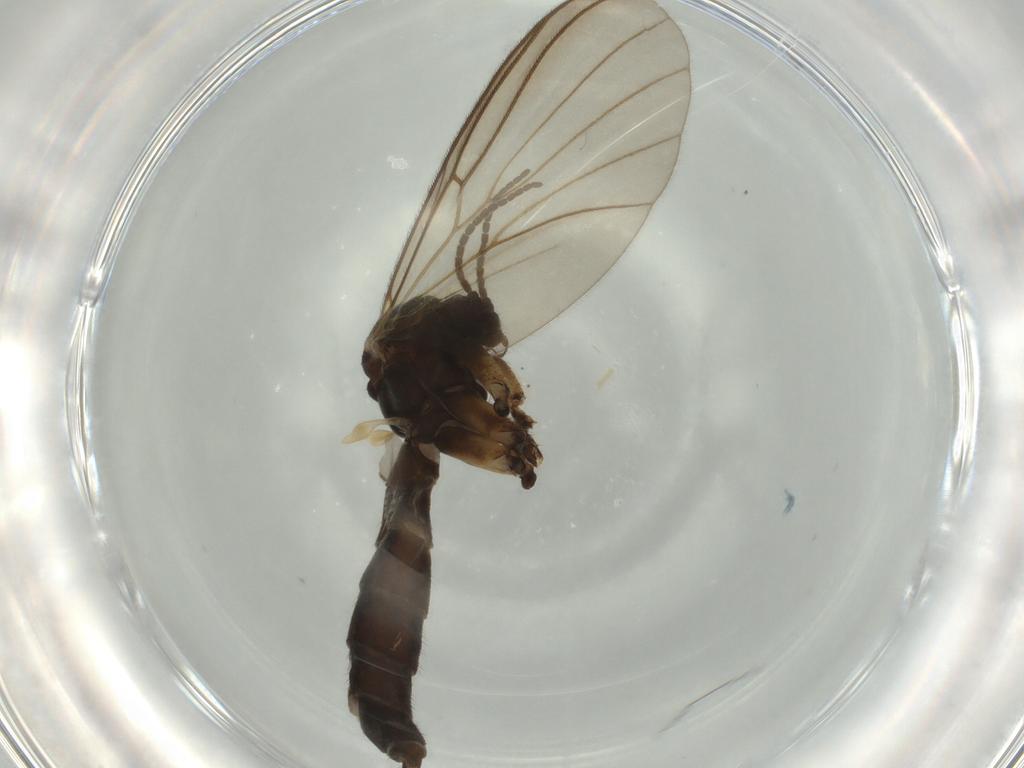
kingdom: Animalia
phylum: Arthropoda
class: Insecta
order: Diptera
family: Mycetophilidae
